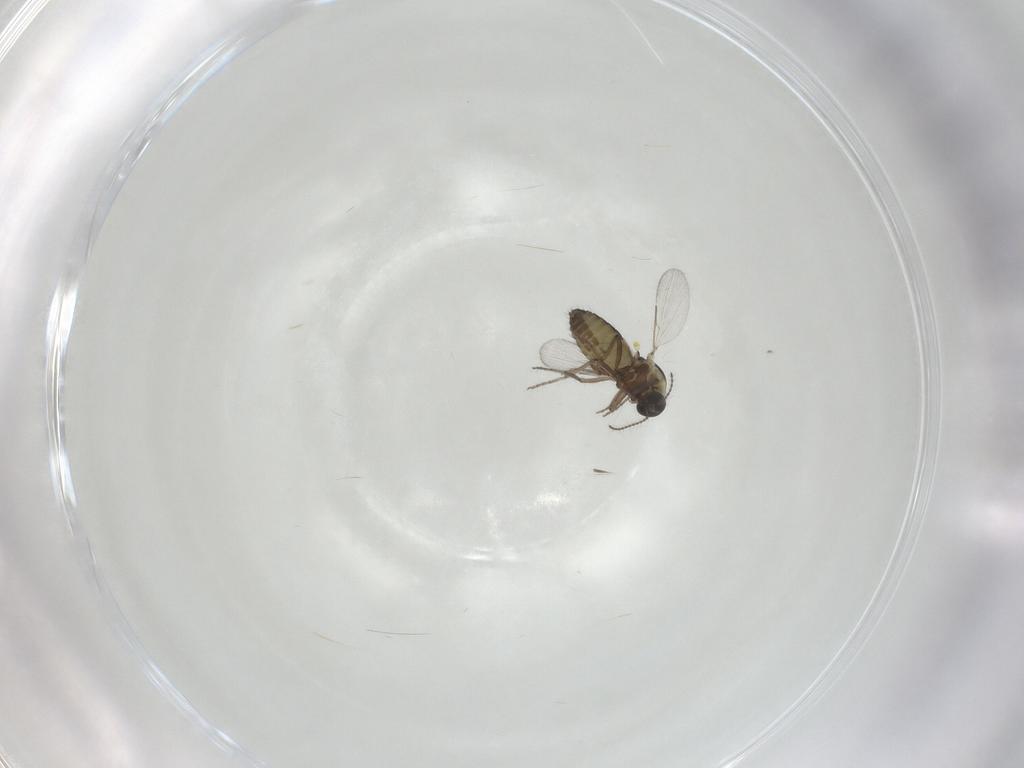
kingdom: Animalia
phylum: Arthropoda
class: Insecta
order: Diptera
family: Ceratopogonidae
